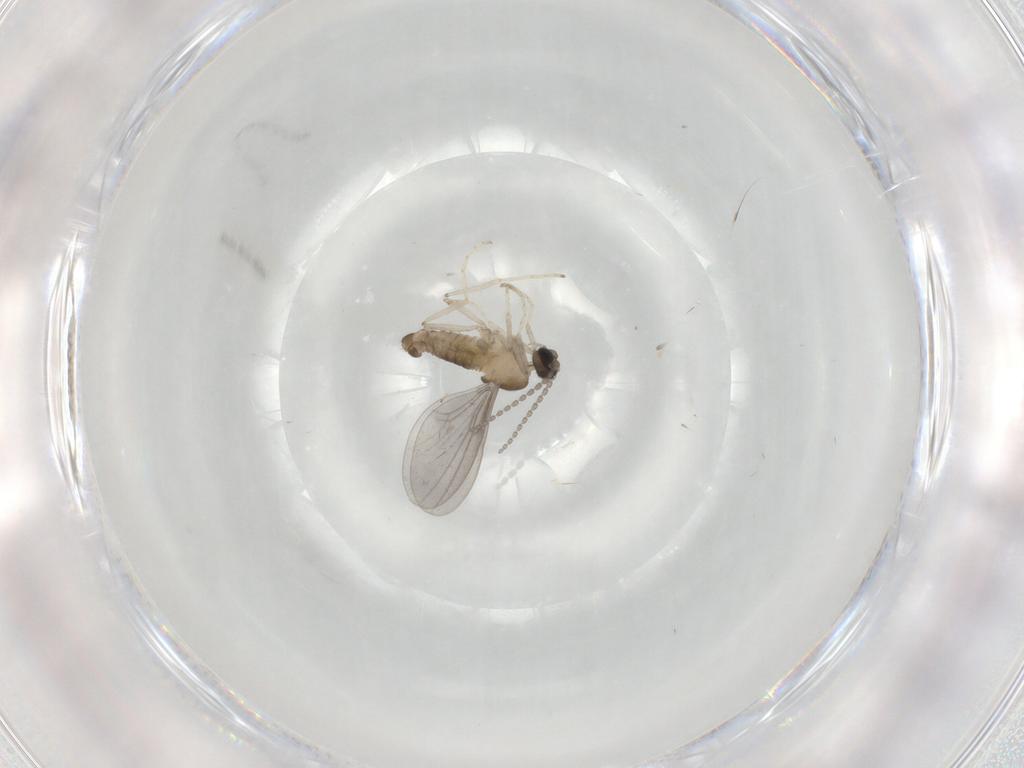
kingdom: Animalia
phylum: Arthropoda
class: Insecta
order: Diptera
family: Cecidomyiidae
